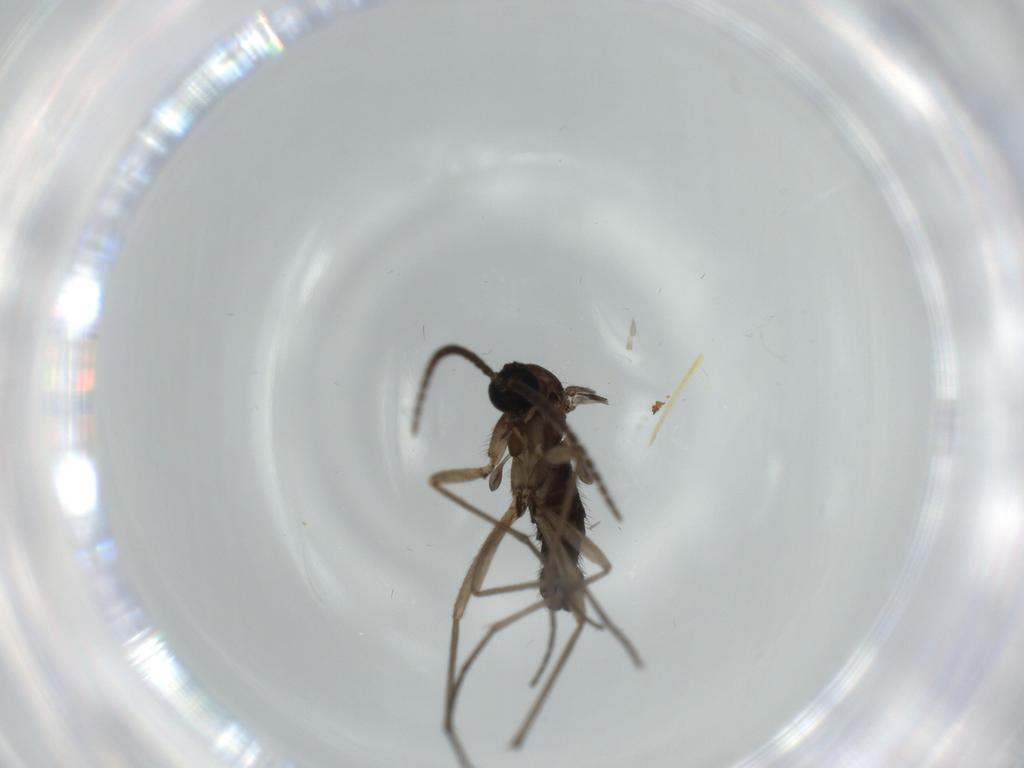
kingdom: Animalia
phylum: Arthropoda
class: Insecta
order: Diptera
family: Sciaridae
